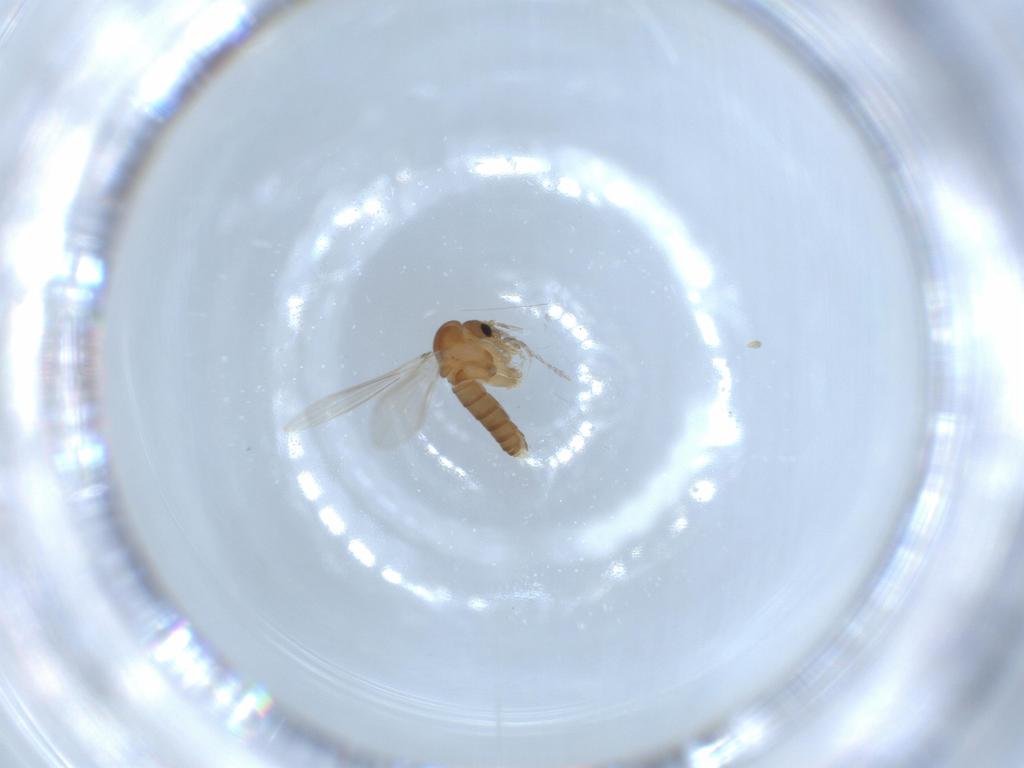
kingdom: Animalia
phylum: Arthropoda
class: Insecta
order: Diptera
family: Psychodidae
